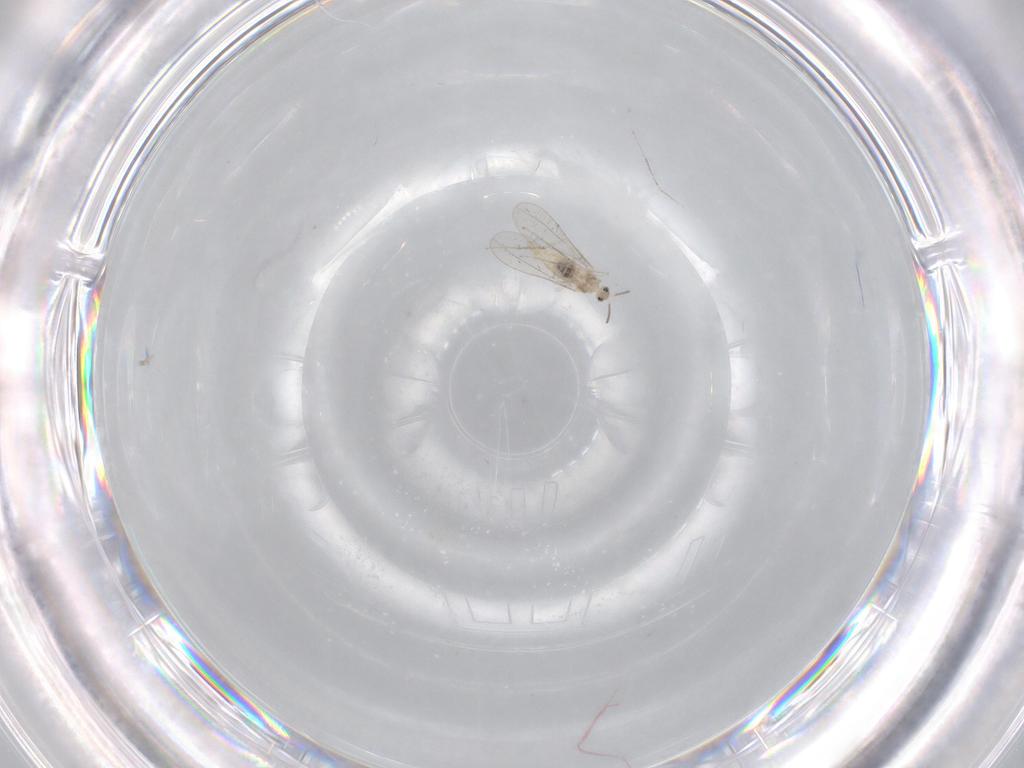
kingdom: Animalia
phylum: Arthropoda
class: Insecta
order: Diptera
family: Cecidomyiidae
